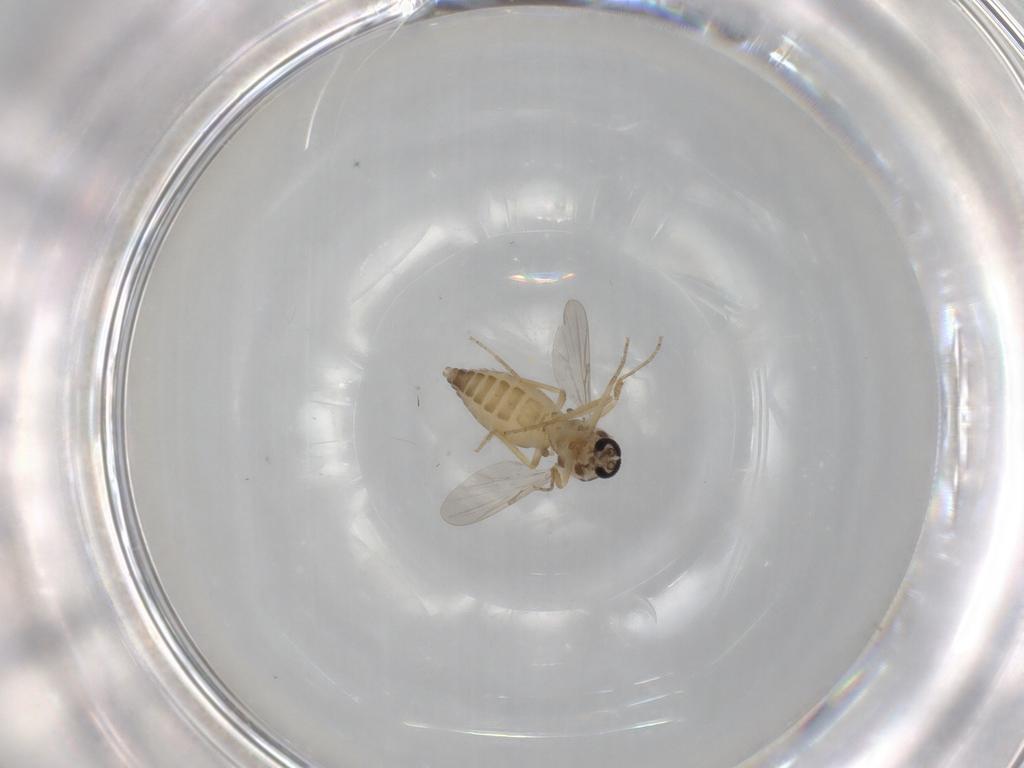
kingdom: Animalia
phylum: Arthropoda
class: Insecta
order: Diptera
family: Ceratopogonidae
